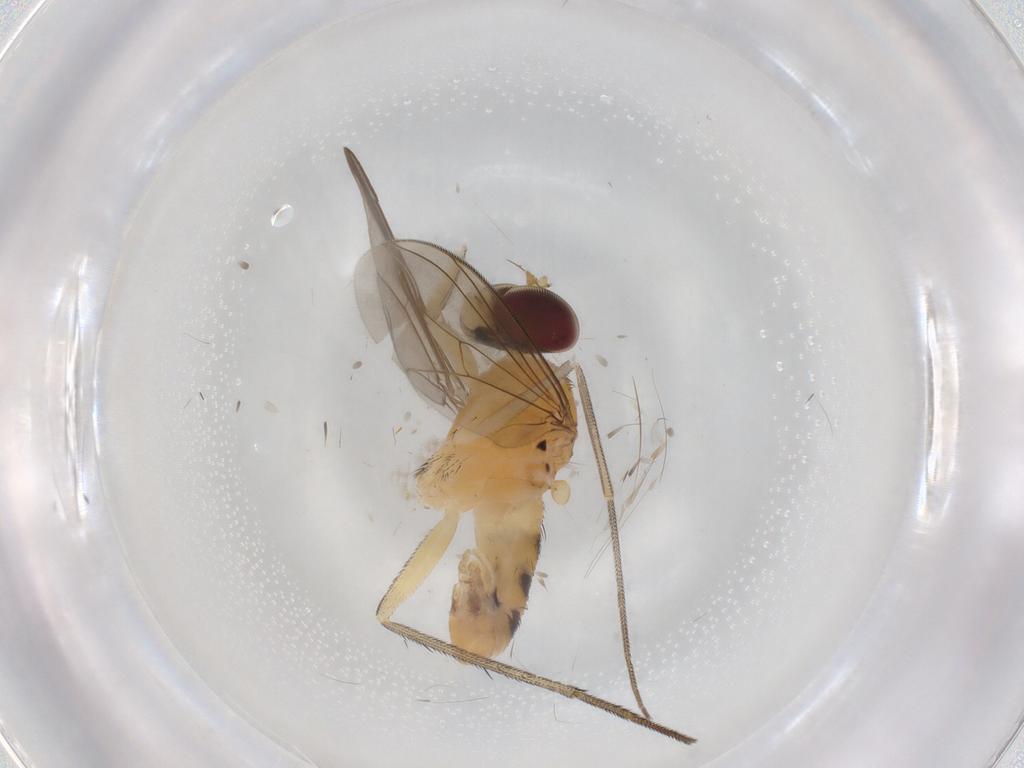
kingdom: Animalia
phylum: Arthropoda
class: Insecta
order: Diptera
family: Dolichopodidae
